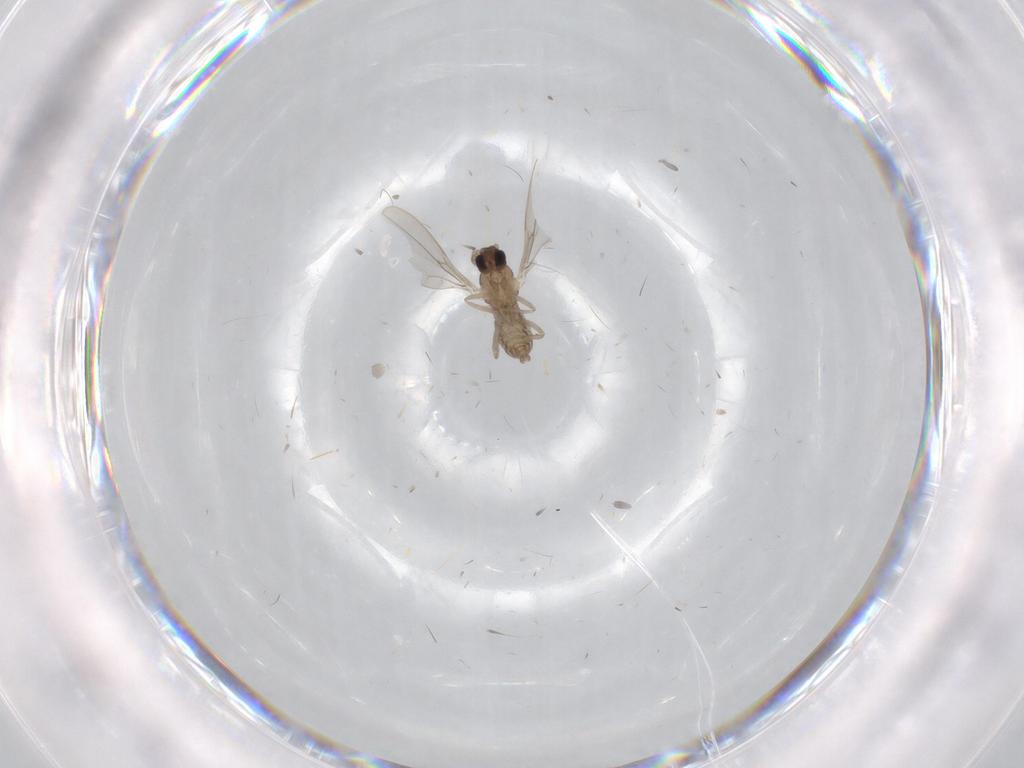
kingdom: Animalia
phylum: Arthropoda
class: Insecta
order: Diptera
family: Cecidomyiidae
